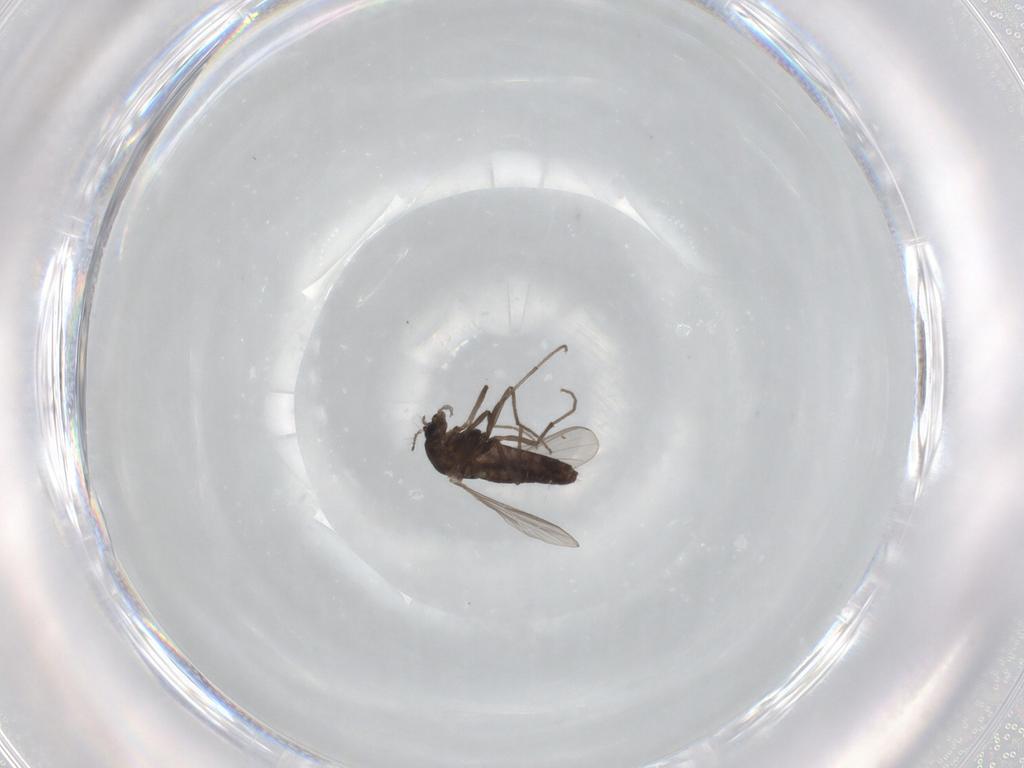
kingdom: Animalia
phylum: Arthropoda
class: Insecta
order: Diptera
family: Chironomidae
